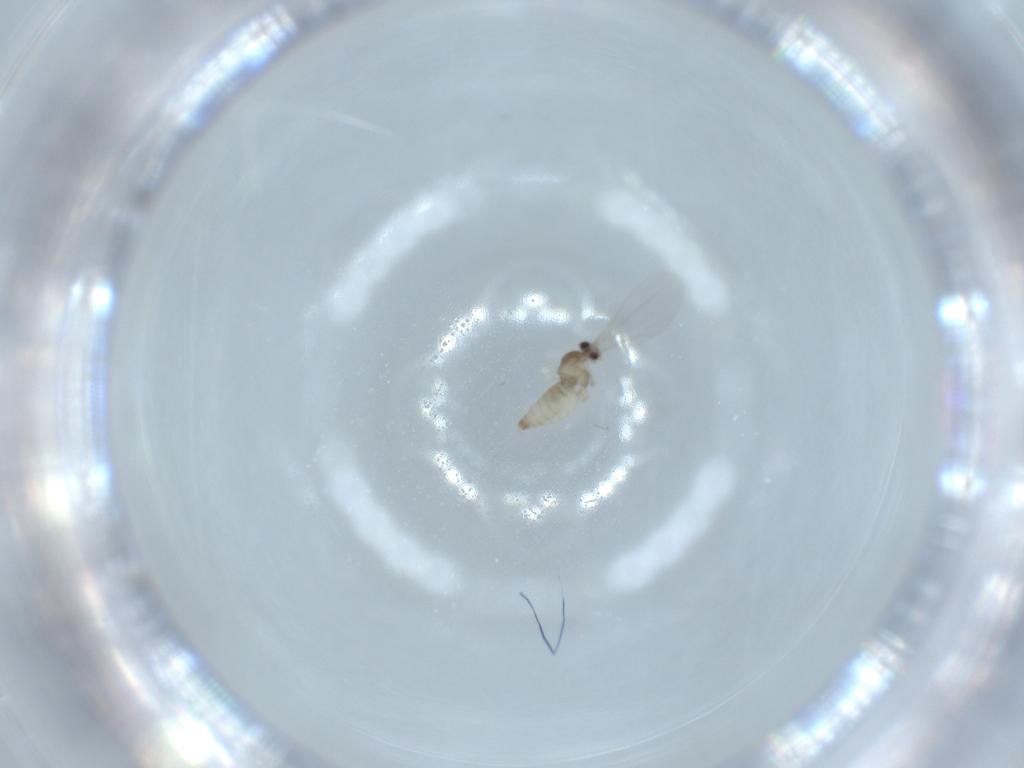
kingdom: Animalia
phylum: Arthropoda
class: Insecta
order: Diptera
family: Cecidomyiidae
